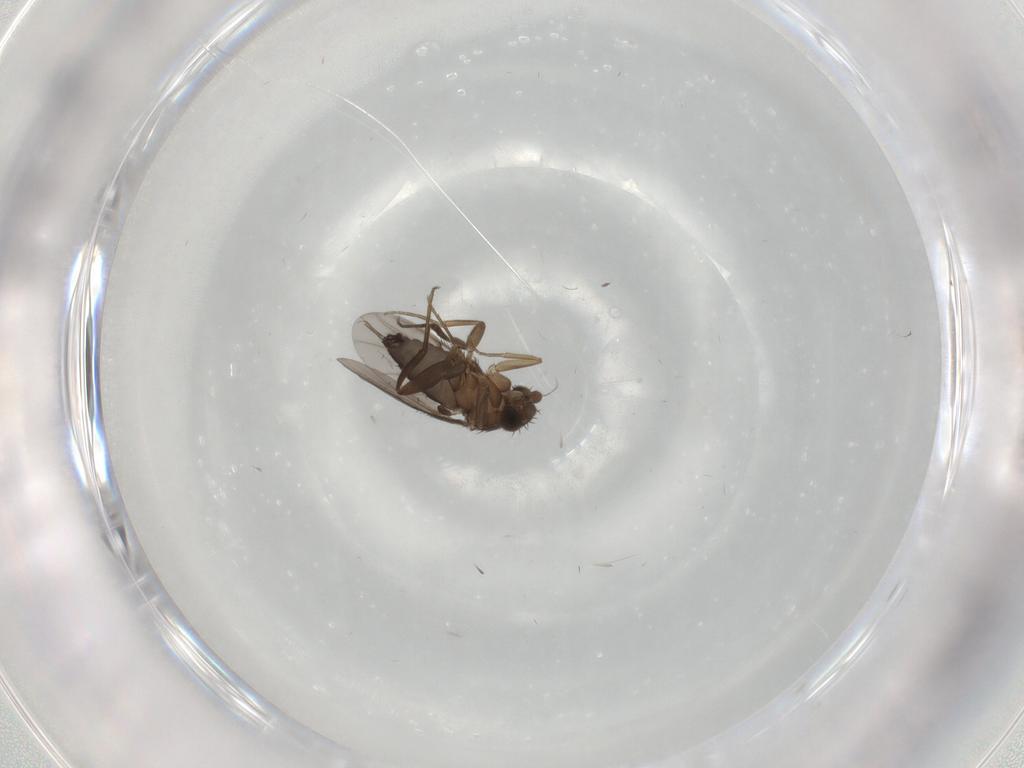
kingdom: Animalia
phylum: Arthropoda
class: Insecta
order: Diptera
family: Phoridae
